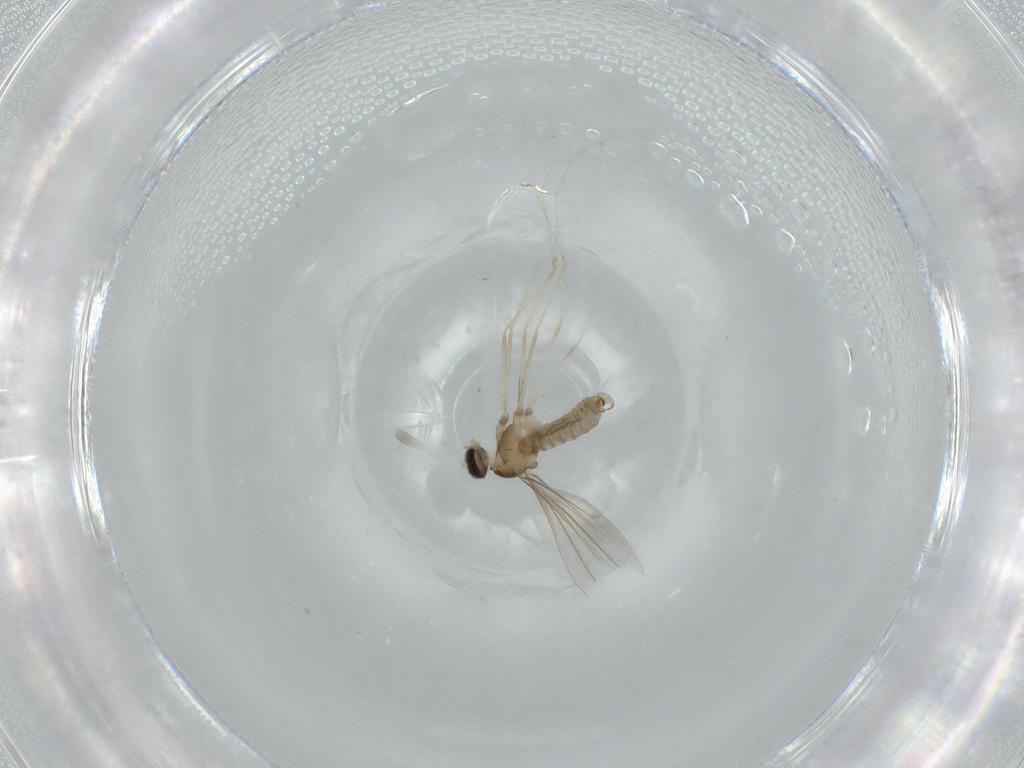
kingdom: Animalia
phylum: Arthropoda
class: Insecta
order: Diptera
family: Cecidomyiidae
